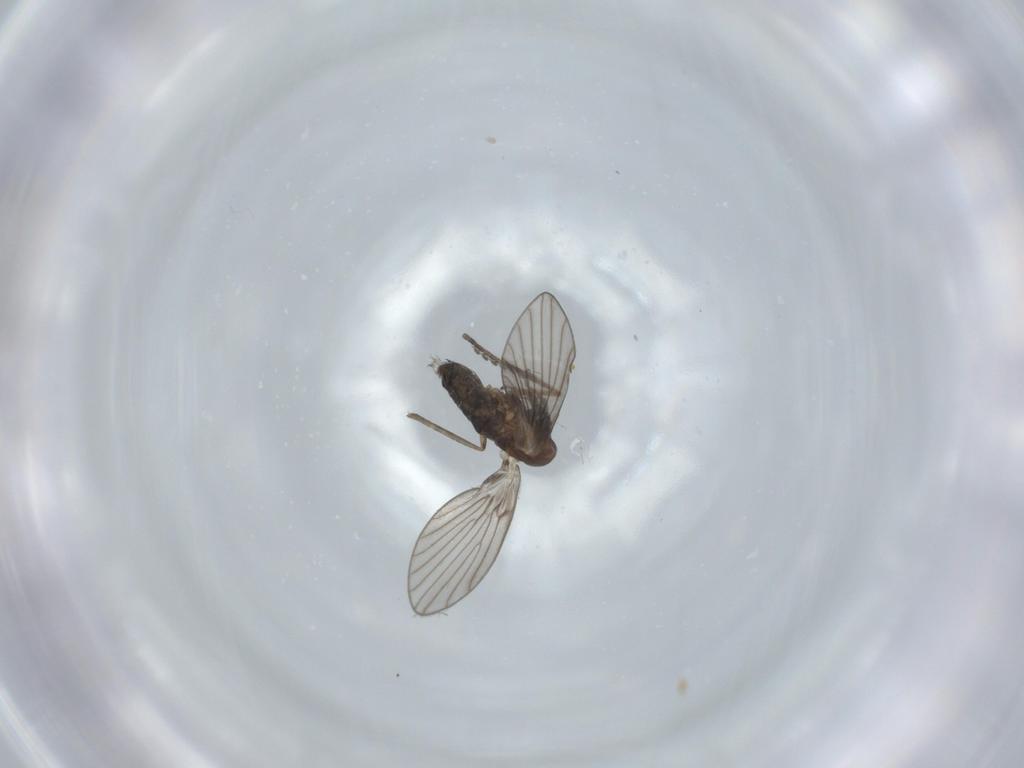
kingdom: Animalia
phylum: Arthropoda
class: Insecta
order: Diptera
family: Psychodidae
